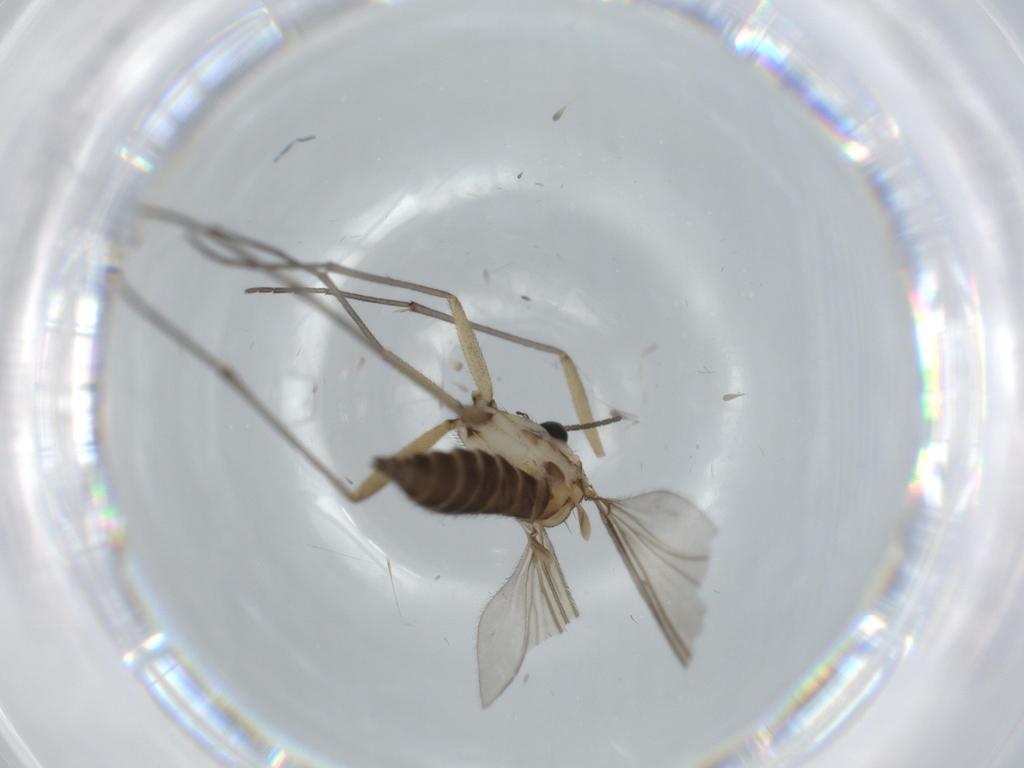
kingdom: Animalia
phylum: Arthropoda
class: Insecta
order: Diptera
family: Sciaridae
